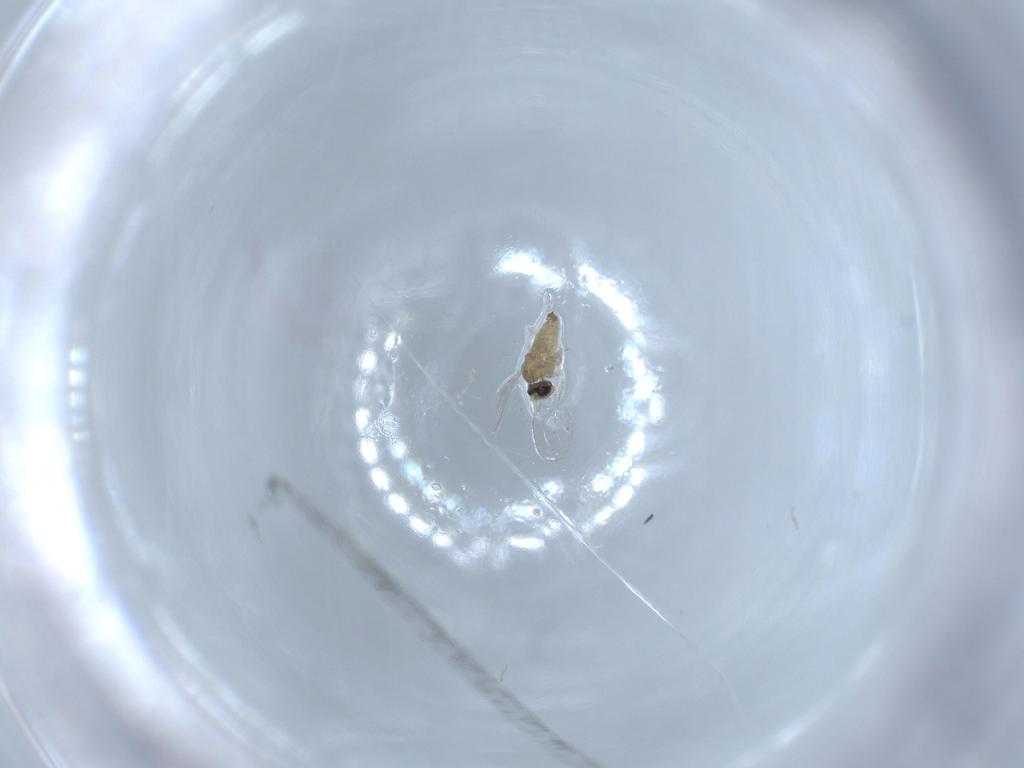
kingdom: Animalia
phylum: Arthropoda
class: Insecta
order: Diptera
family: Cecidomyiidae
